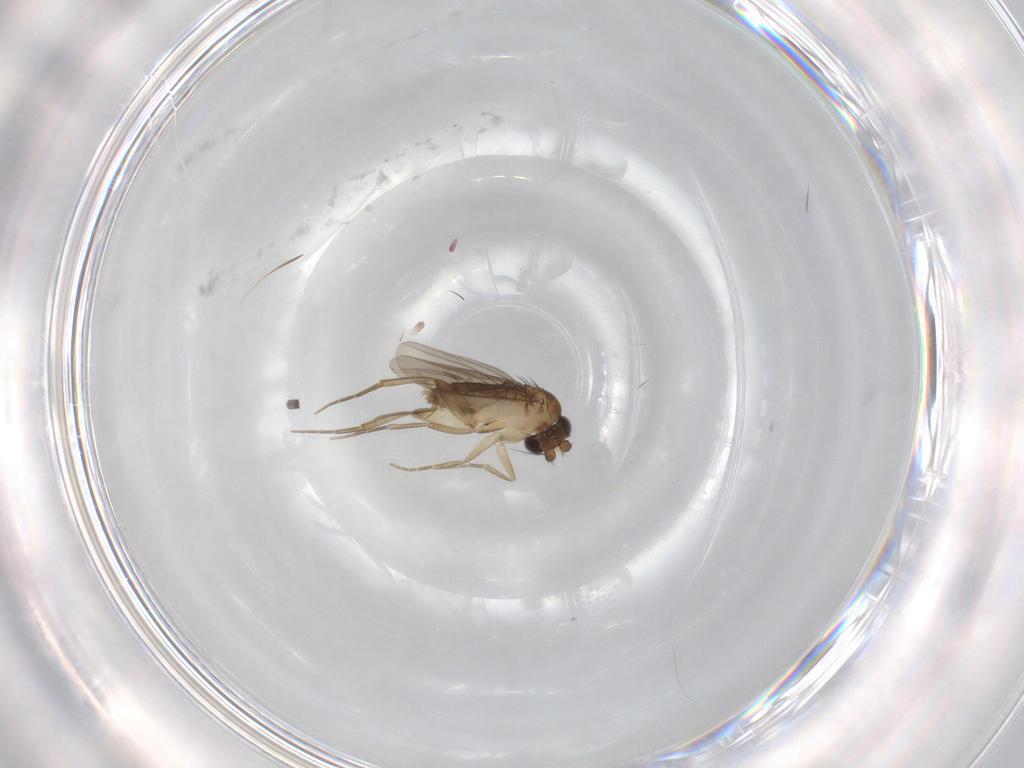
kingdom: Animalia
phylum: Arthropoda
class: Insecta
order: Diptera
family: Phoridae
